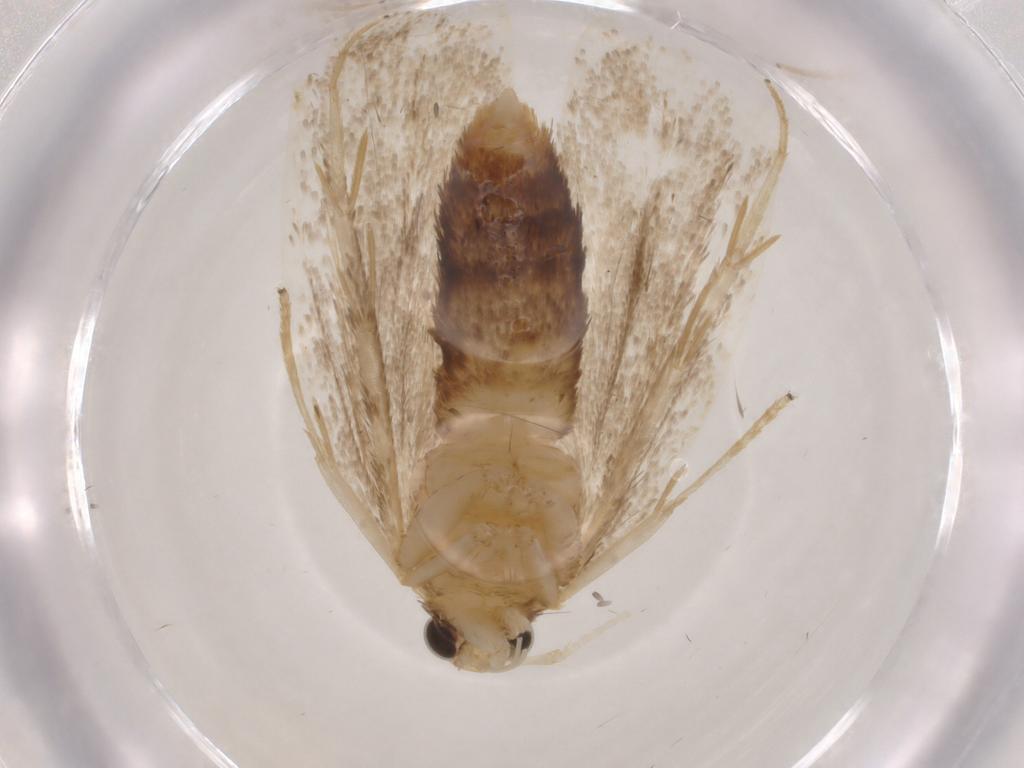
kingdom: Animalia
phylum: Arthropoda
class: Insecta
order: Lepidoptera
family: Lecithoceridae
